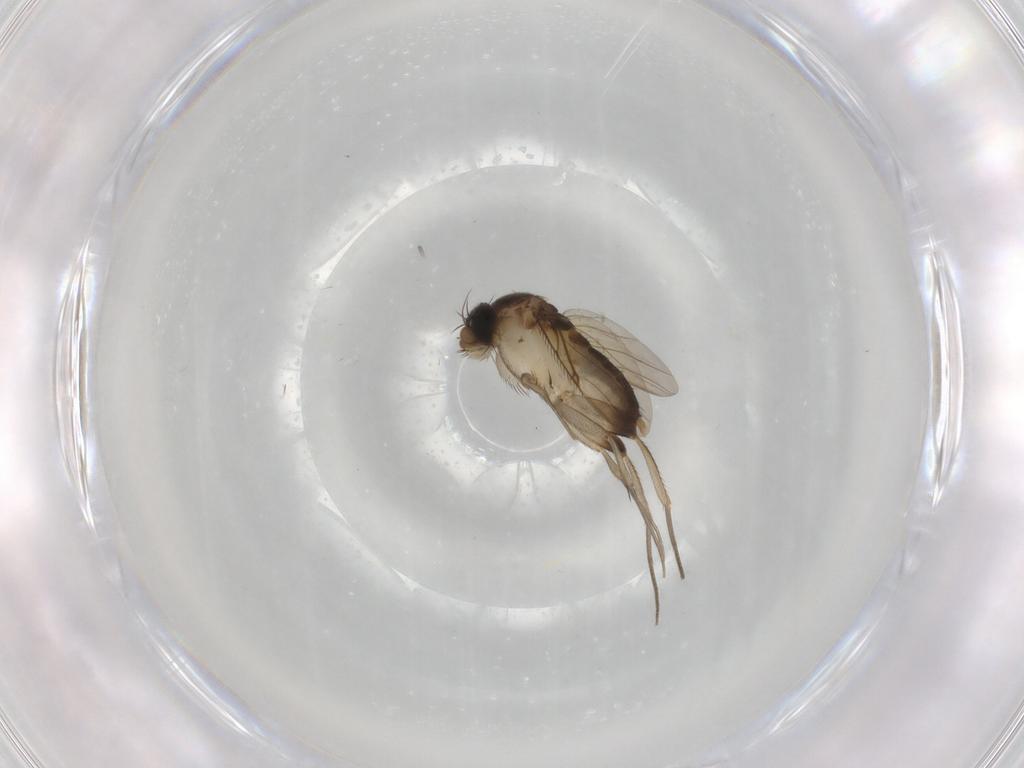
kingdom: Animalia
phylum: Arthropoda
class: Insecta
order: Diptera
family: Phoridae
